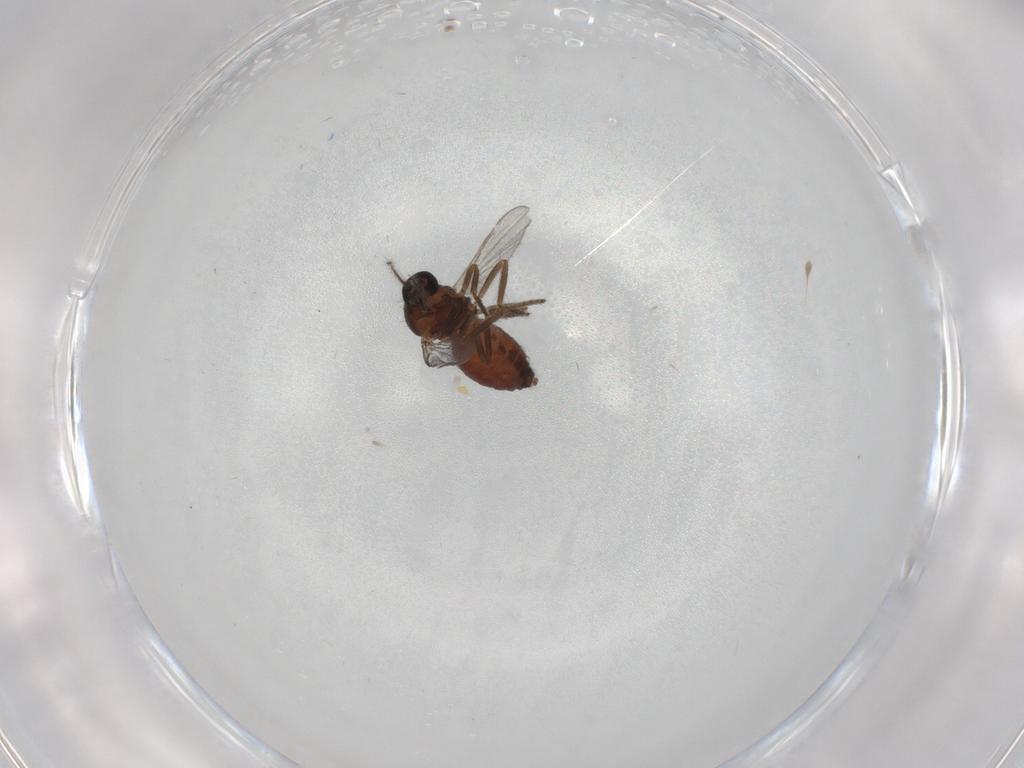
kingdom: Animalia
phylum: Arthropoda
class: Insecta
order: Diptera
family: Ceratopogonidae
